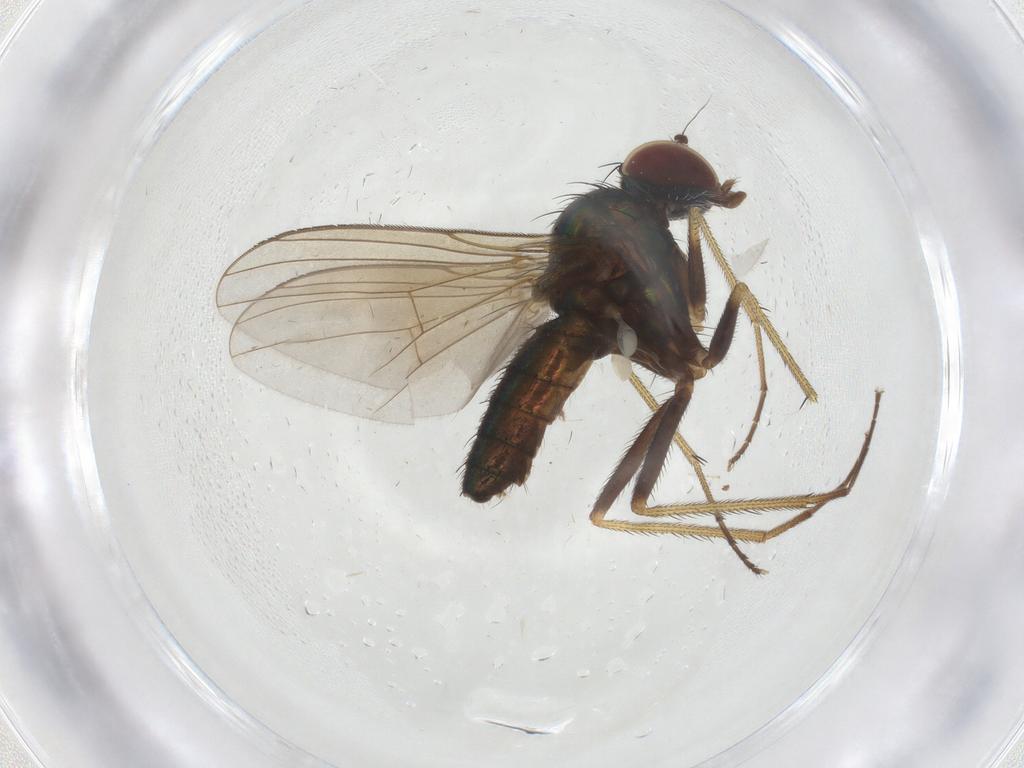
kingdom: Animalia
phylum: Arthropoda
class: Insecta
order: Diptera
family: Dolichopodidae
